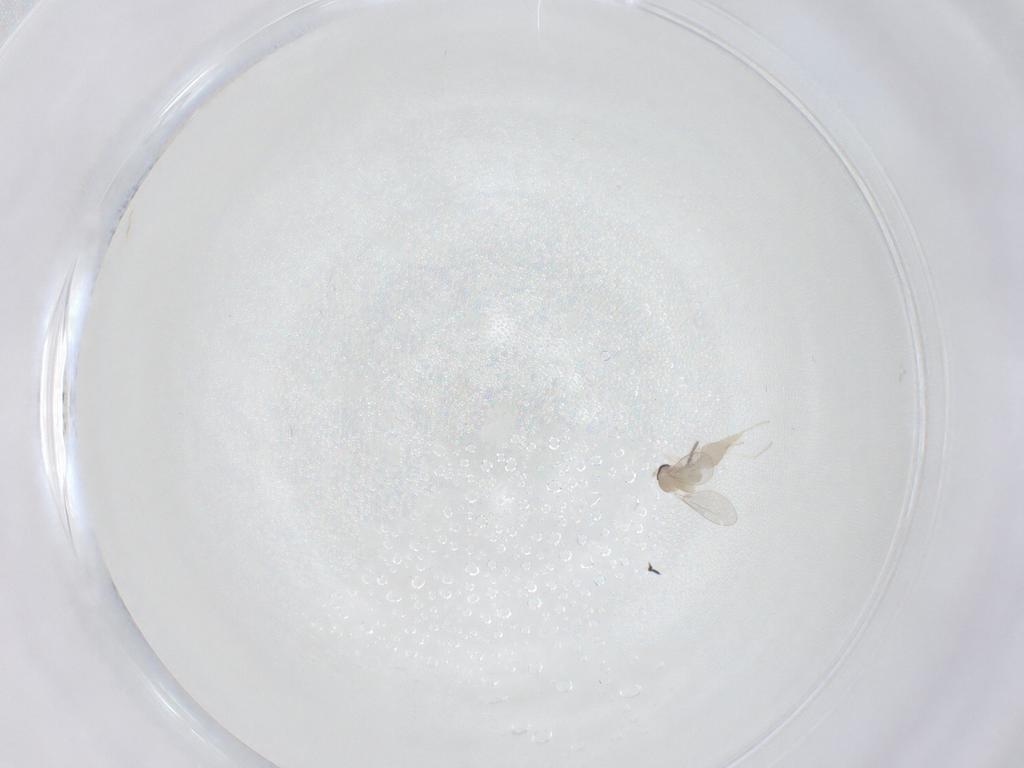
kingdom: Animalia
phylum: Arthropoda
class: Insecta
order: Diptera
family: Cecidomyiidae
